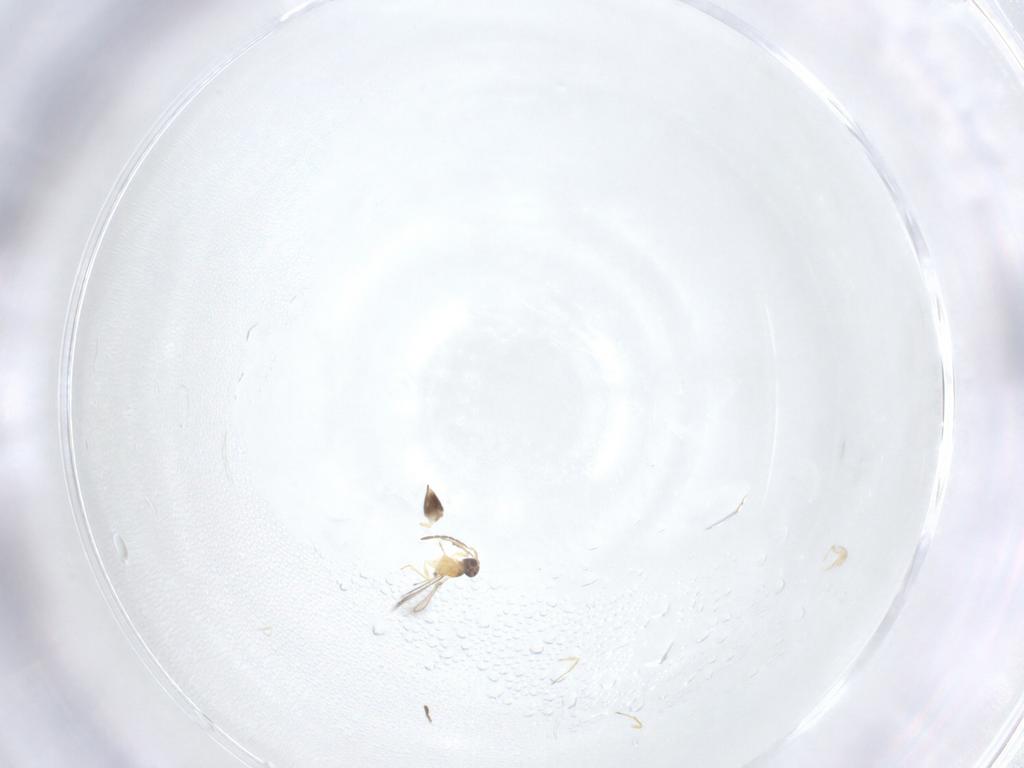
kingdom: Animalia
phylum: Arthropoda
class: Insecta
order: Hymenoptera
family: Mymaridae
